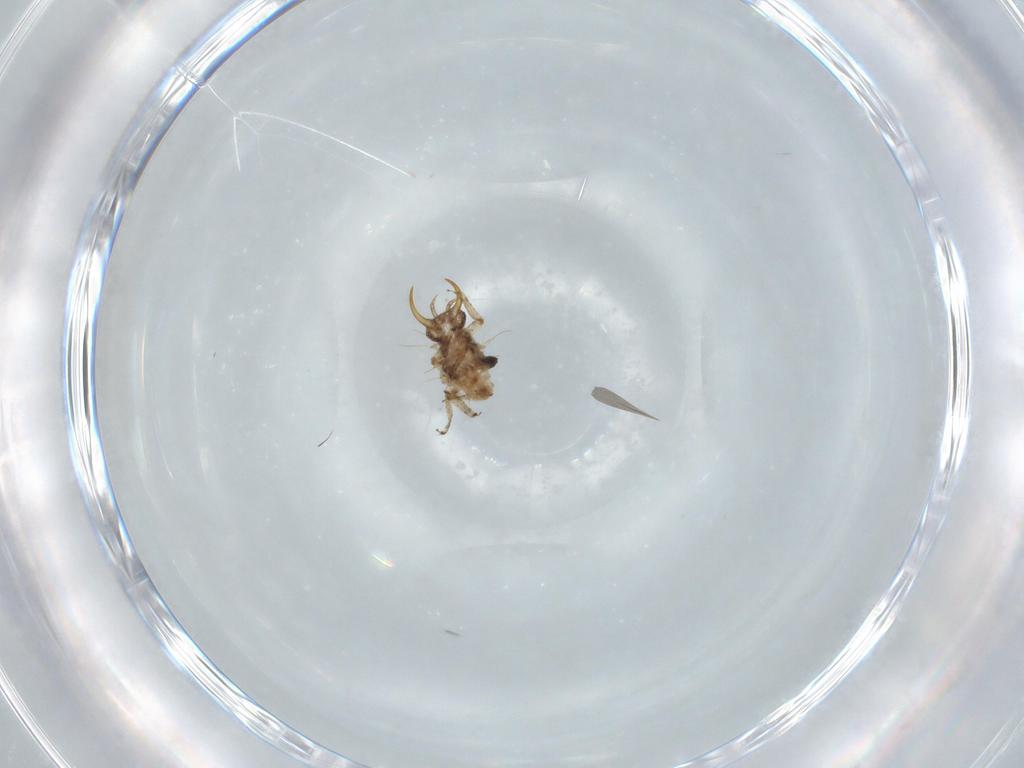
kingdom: Animalia
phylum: Arthropoda
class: Insecta
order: Neuroptera
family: Chrysopidae
